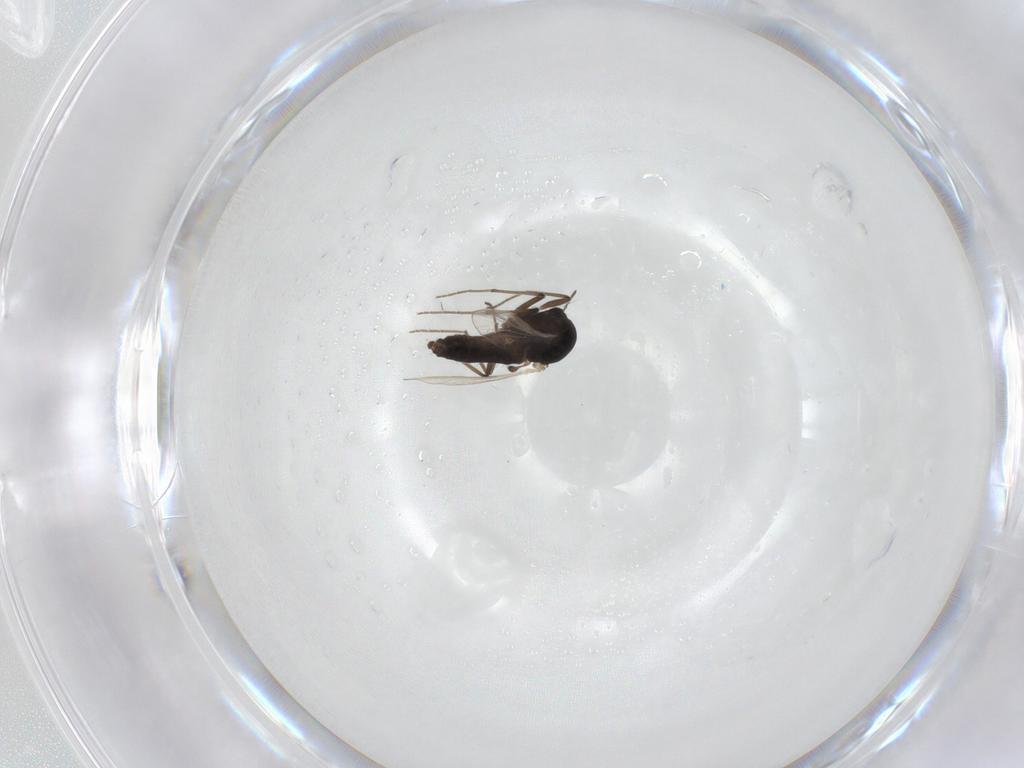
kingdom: Animalia
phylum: Arthropoda
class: Insecta
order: Diptera
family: Chironomidae
